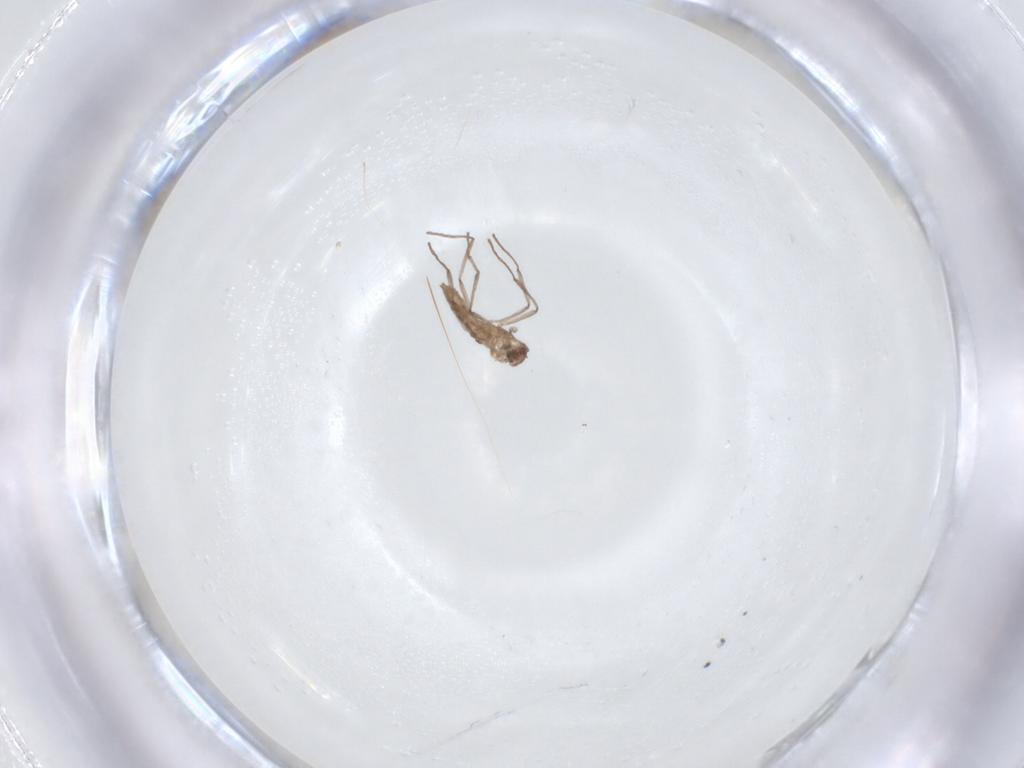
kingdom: Animalia
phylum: Arthropoda
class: Insecta
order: Diptera
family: Cecidomyiidae
